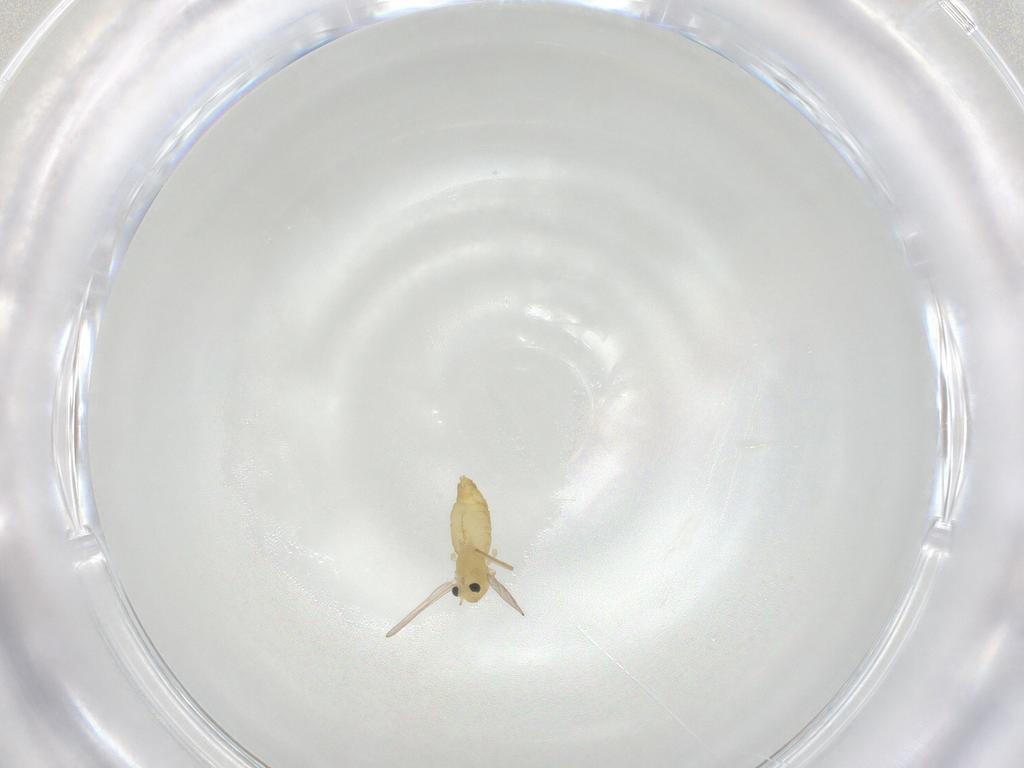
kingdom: Animalia
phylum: Arthropoda
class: Insecta
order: Diptera
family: Chironomidae
